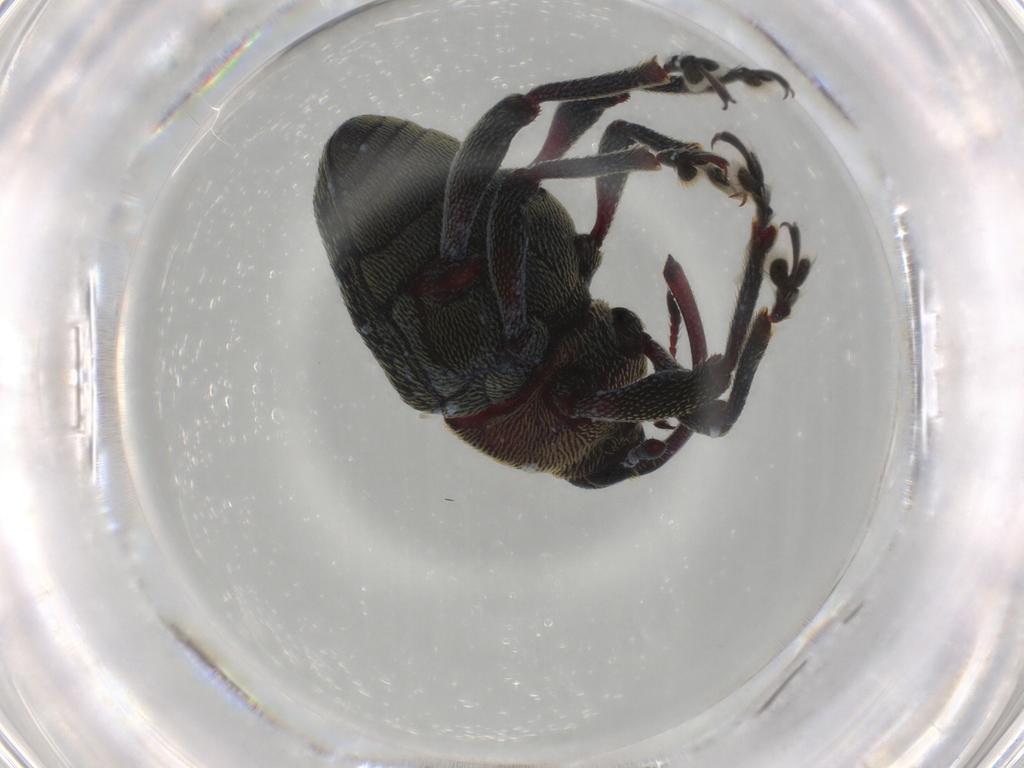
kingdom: Animalia
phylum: Arthropoda
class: Insecta
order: Coleoptera
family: Curculionidae
